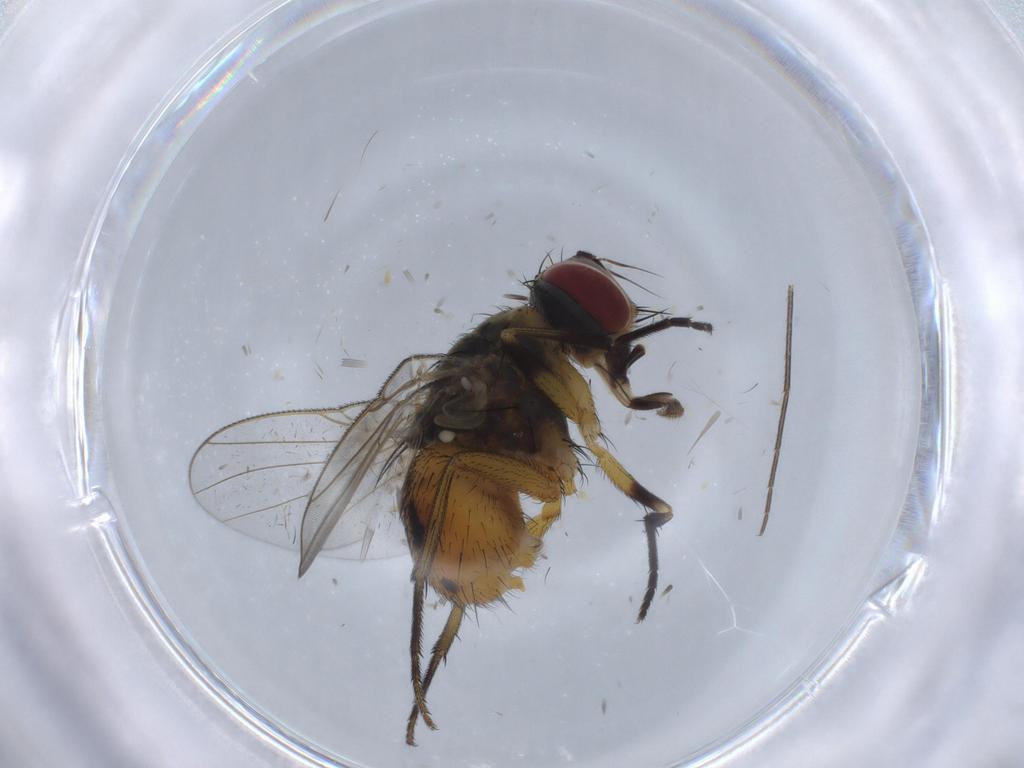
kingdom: Animalia
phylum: Arthropoda
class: Insecta
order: Diptera
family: Muscidae
